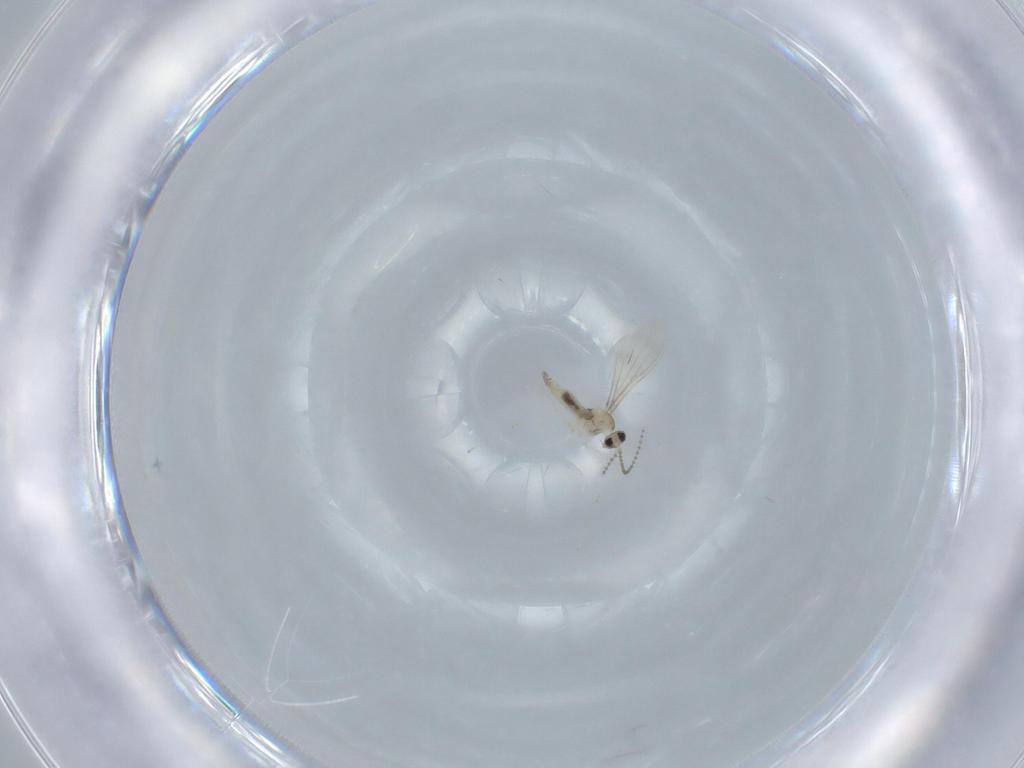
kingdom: Animalia
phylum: Arthropoda
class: Insecta
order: Diptera
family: Cecidomyiidae
